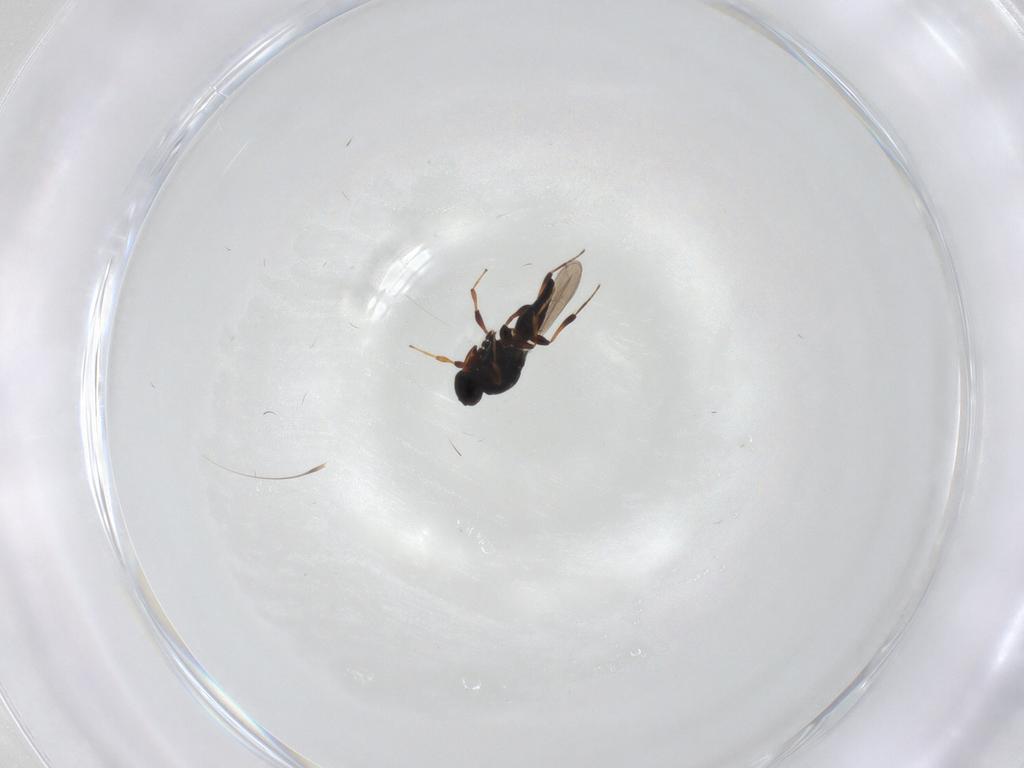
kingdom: Animalia
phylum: Arthropoda
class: Insecta
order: Hymenoptera
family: Platygastridae
